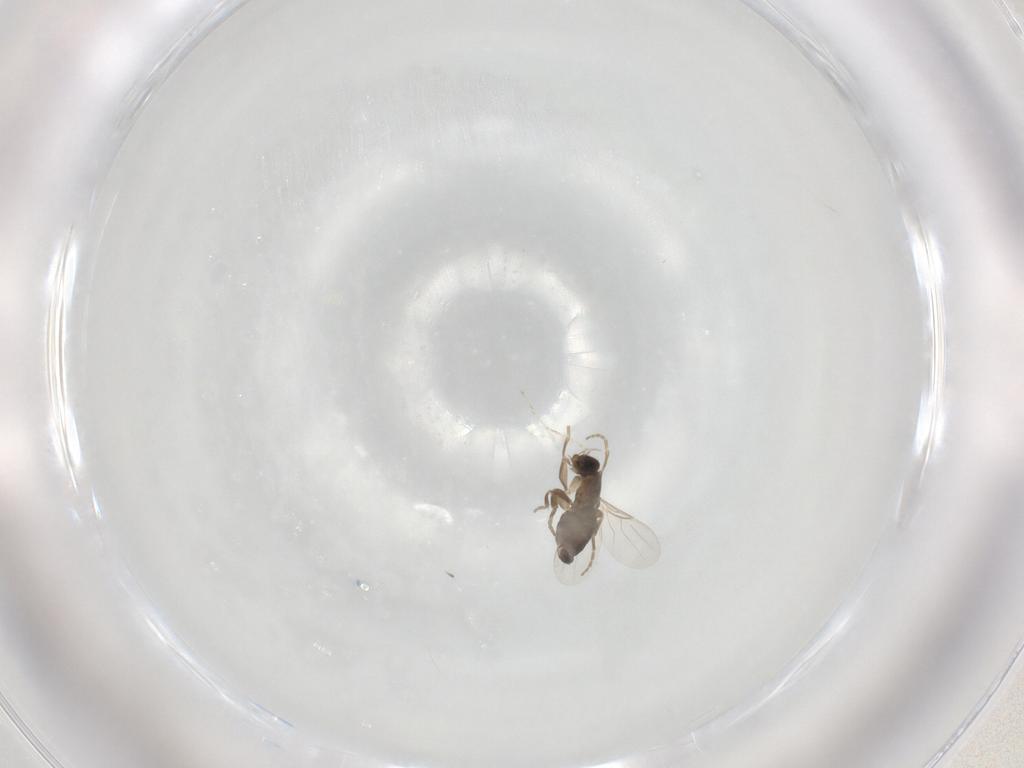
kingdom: Animalia
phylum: Arthropoda
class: Insecta
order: Diptera
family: Phoridae
